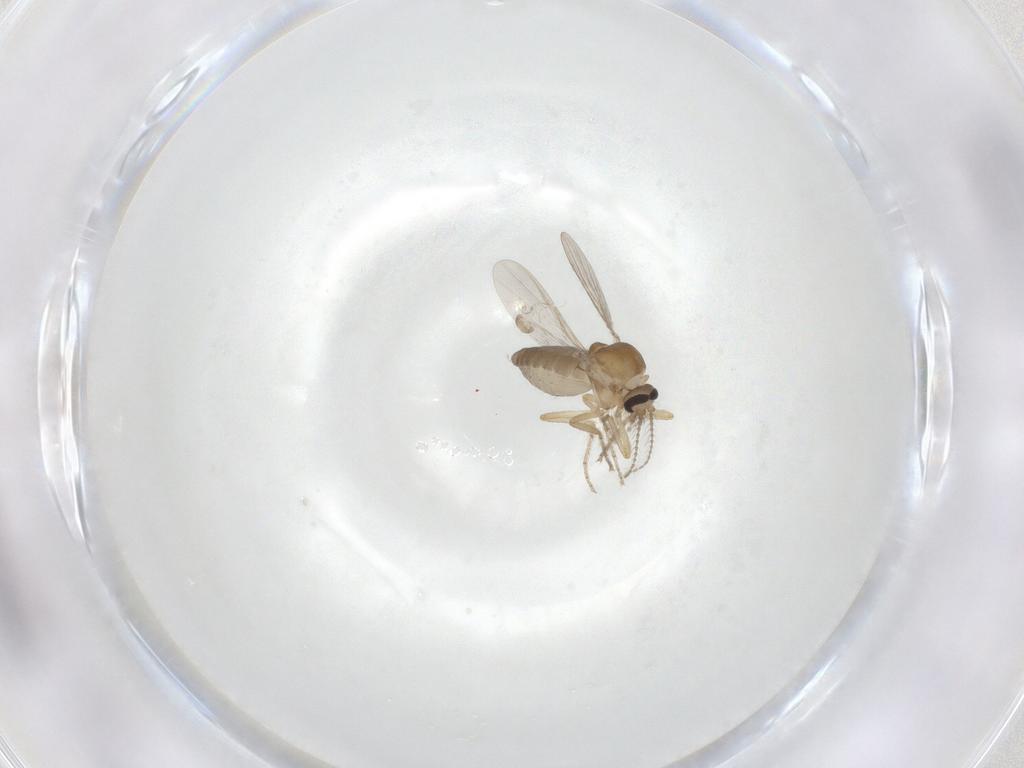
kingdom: Animalia
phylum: Arthropoda
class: Insecta
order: Diptera
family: Ceratopogonidae
